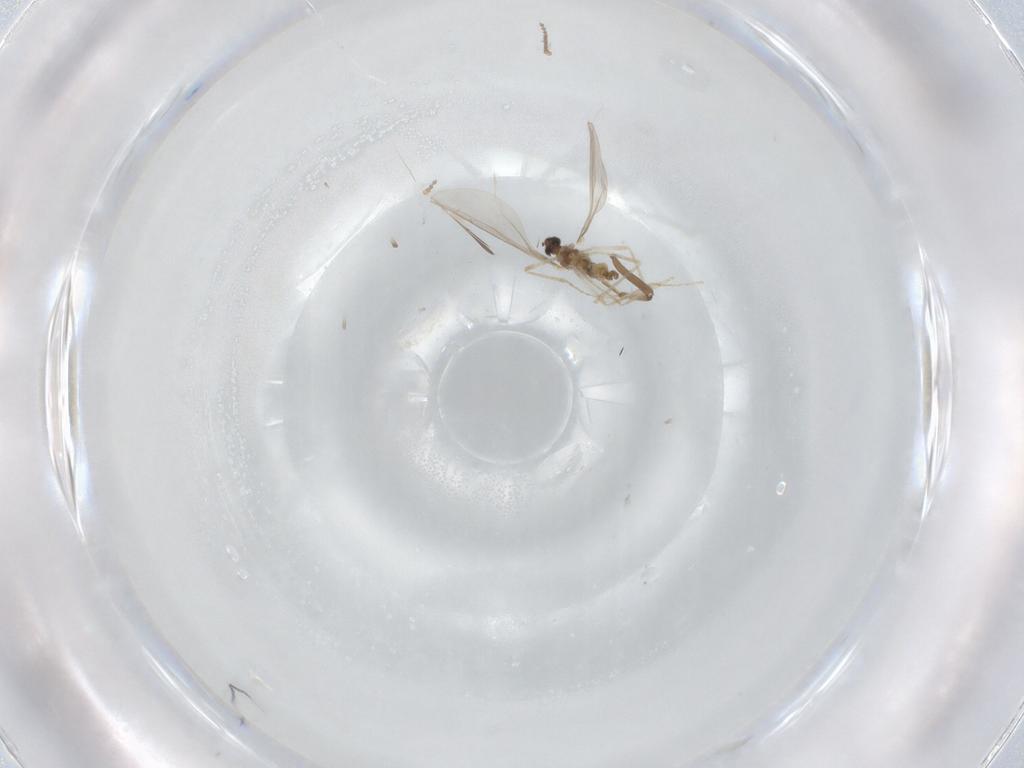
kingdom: Animalia
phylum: Arthropoda
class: Insecta
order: Diptera
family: Cecidomyiidae
